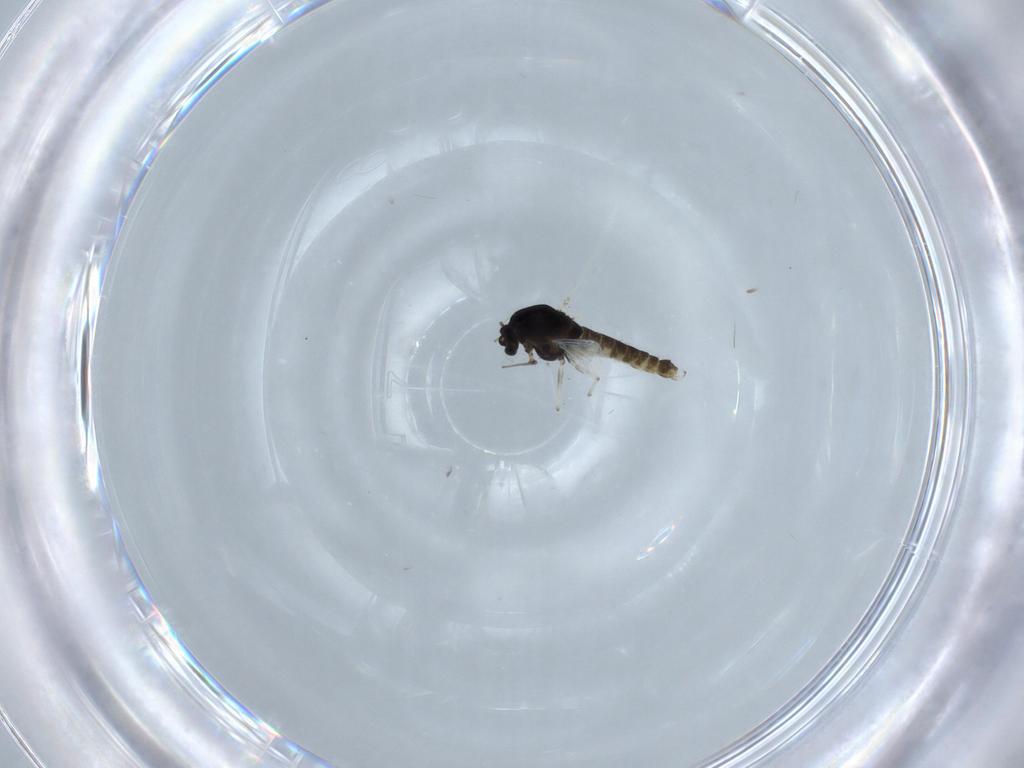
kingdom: Animalia
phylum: Arthropoda
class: Insecta
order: Diptera
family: Chironomidae
